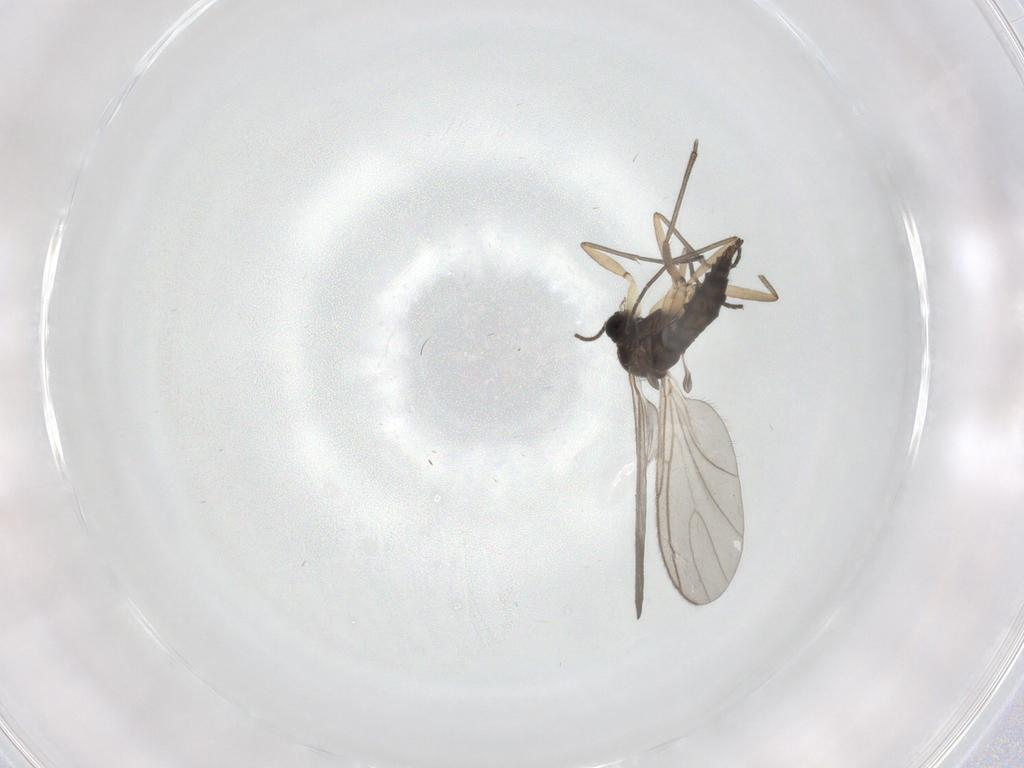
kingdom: Animalia
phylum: Arthropoda
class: Insecta
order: Diptera
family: Sciaridae
